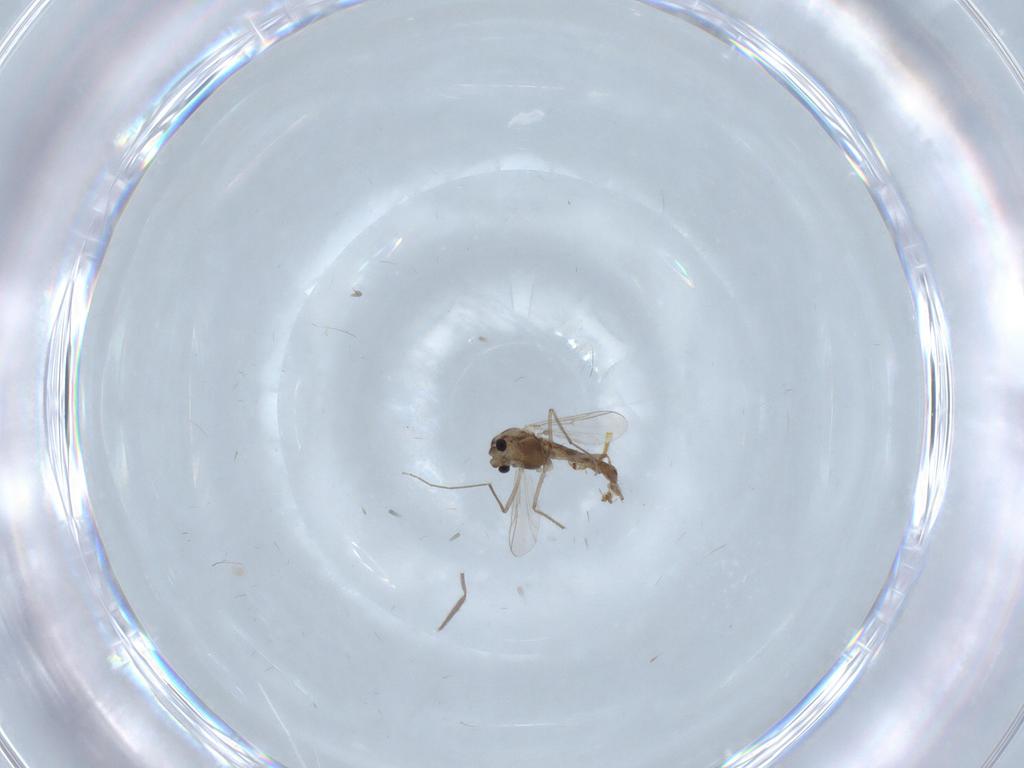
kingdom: Animalia
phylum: Arthropoda
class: Insecta
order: Diptera
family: Chironomidae
